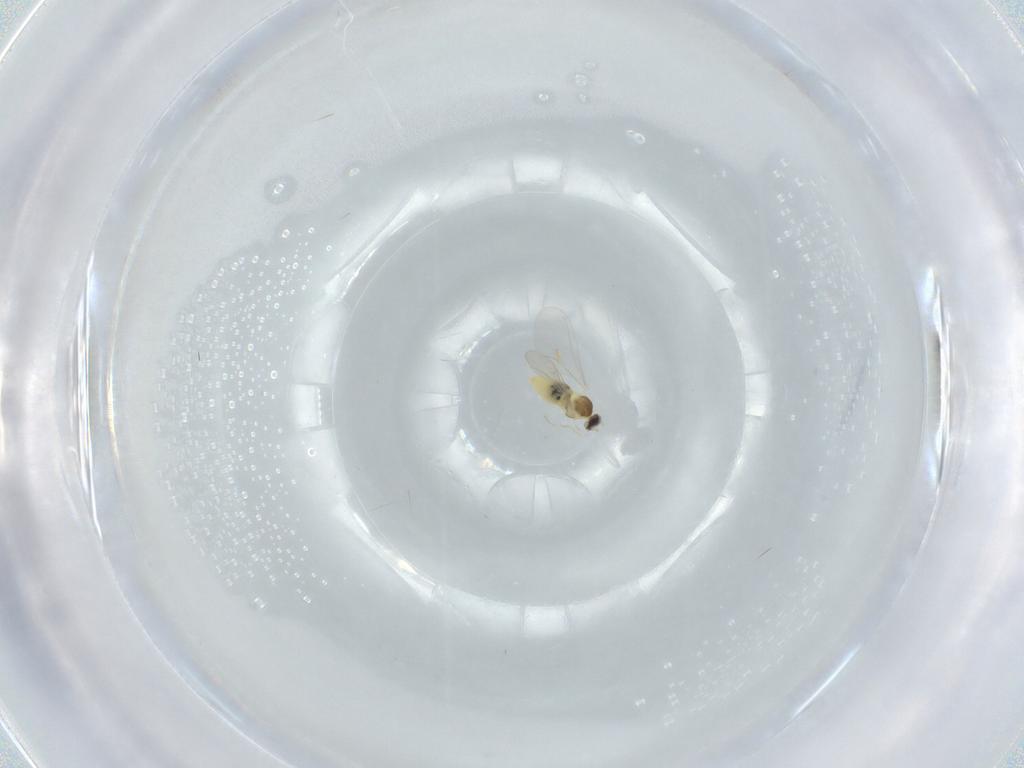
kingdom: Animalia
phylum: Arthropoda
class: Insecta
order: Diptera
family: Cecidomyiidae
